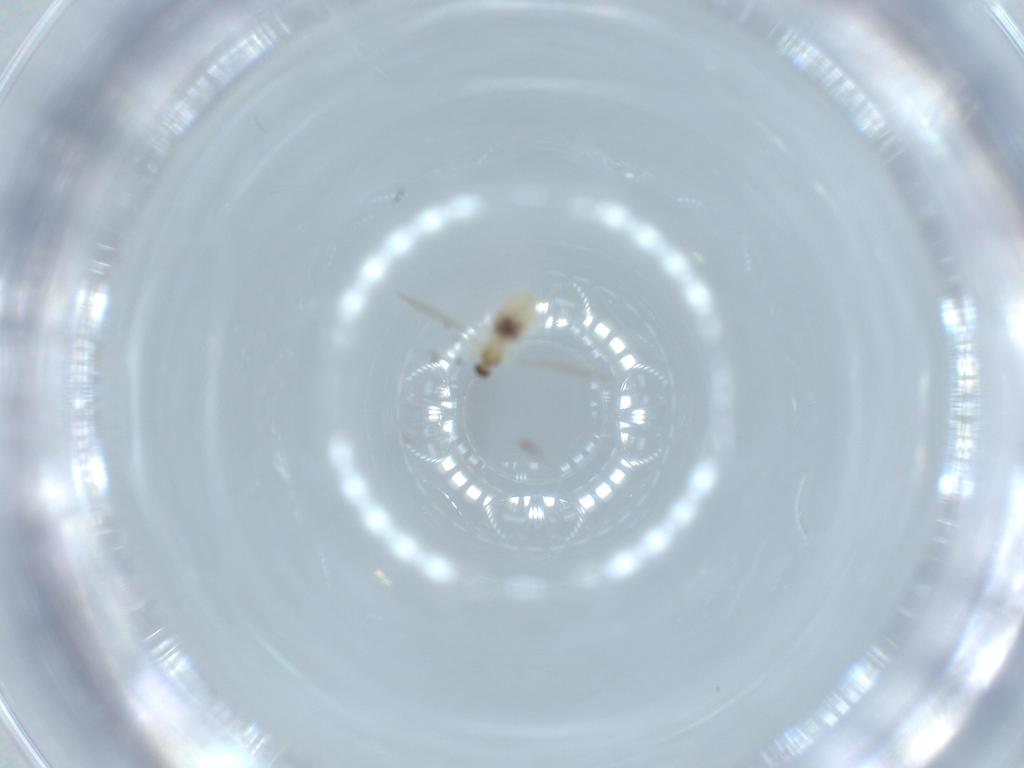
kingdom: Animalia
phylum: Arthropoda
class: Insecta
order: Diptera
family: Cecidomyiidae
